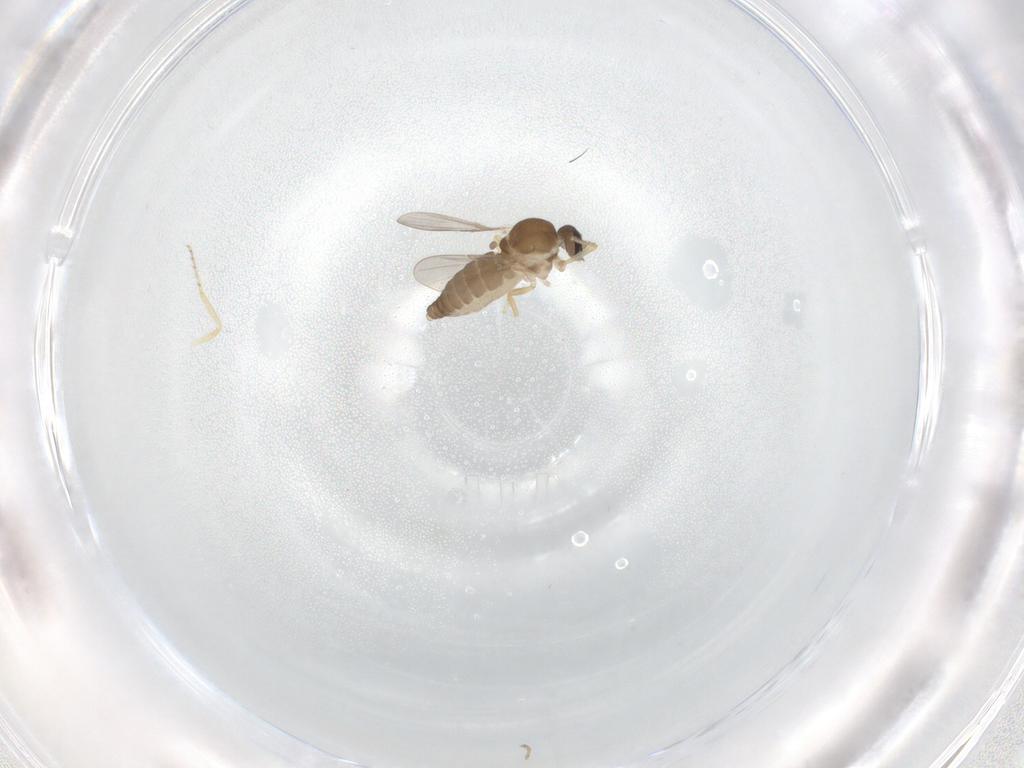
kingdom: Animalia
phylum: Arthropoda
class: Insecta
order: Diptera
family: Ceratopogonidae
